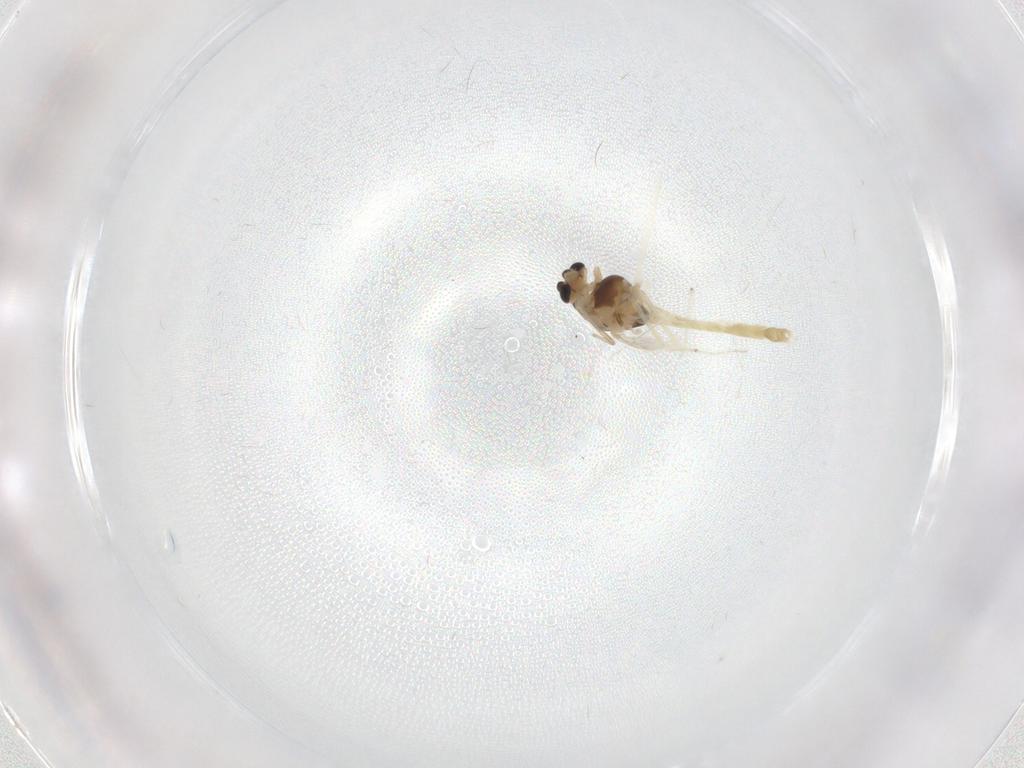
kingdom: Animalia
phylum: Arthropoda
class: Insecta
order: Diptera
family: Chironomidae
